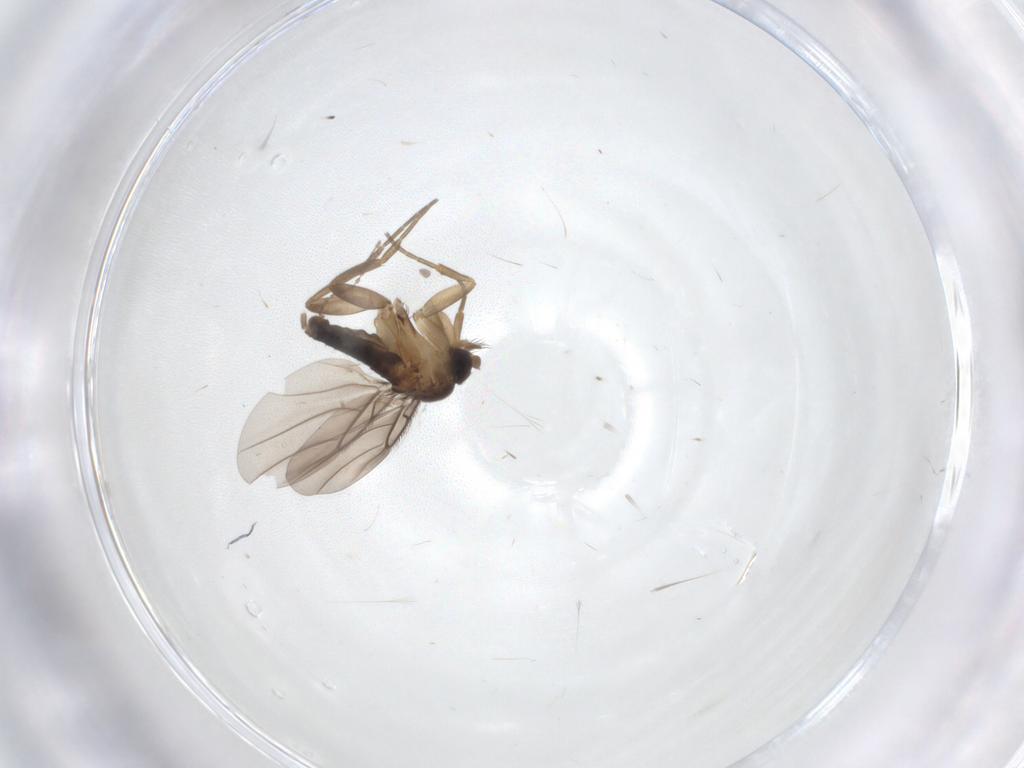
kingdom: Animalia
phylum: Arthropoda
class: Insecta
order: Diptera
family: Phoridae
